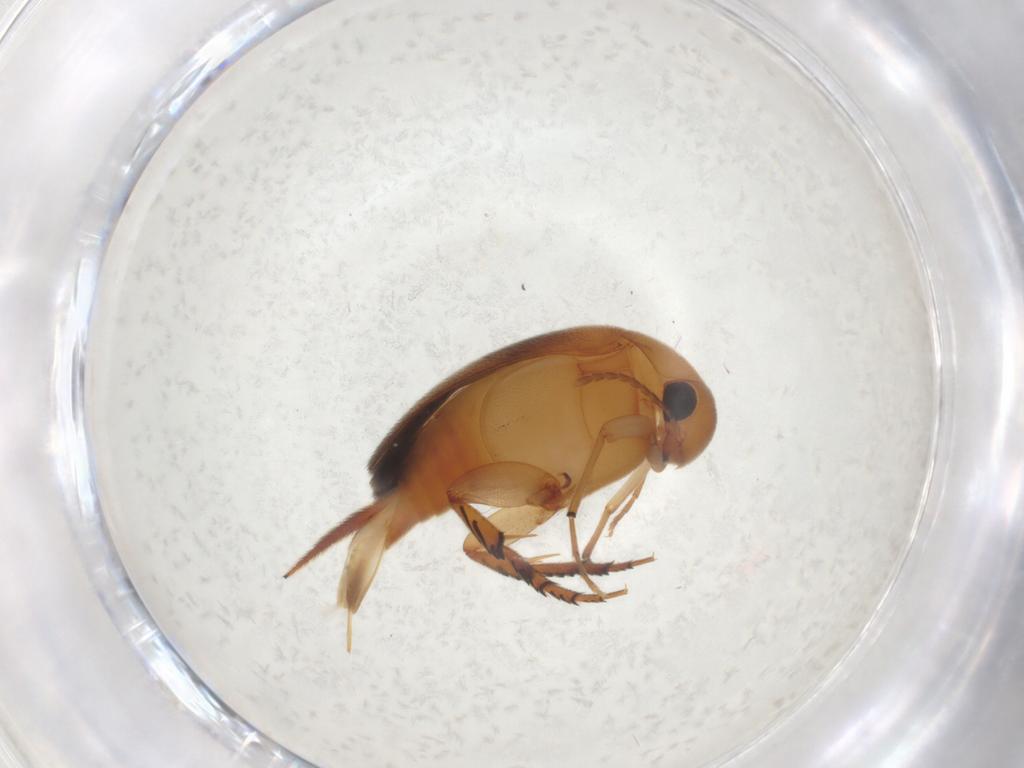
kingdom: Animalia
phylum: Arthropoda
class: Insecta
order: Coleoptera
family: Mordellidae
